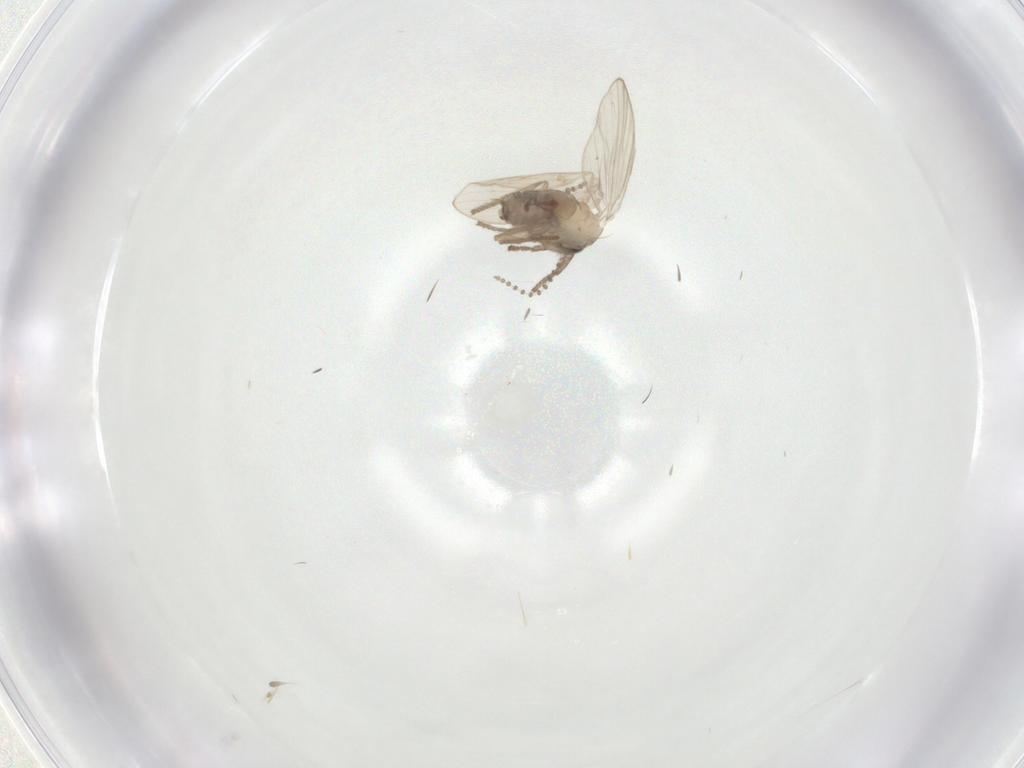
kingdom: Animalia
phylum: Arthropoda
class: Insecta
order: Diptera
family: Psychodidae
